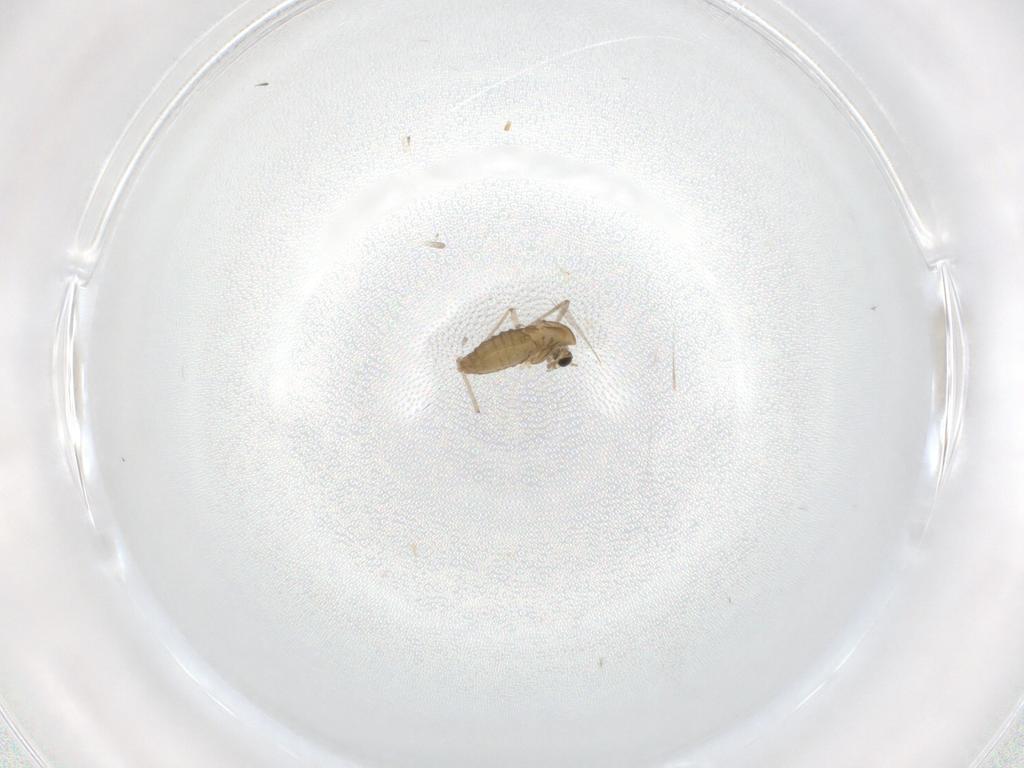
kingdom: Animalia
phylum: Arthropoda
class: Insecta
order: Diptera
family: Chironomidae
